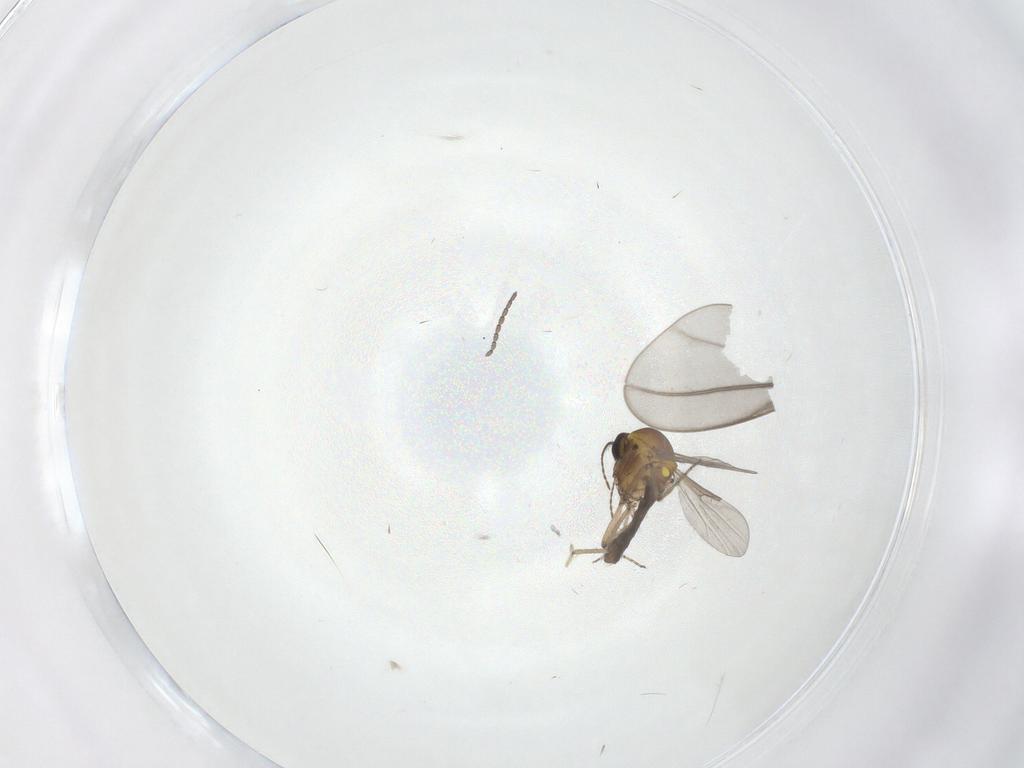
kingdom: Animalia
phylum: Arthropoda
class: Insecta
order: Diptera
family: Ceratopogonidae
